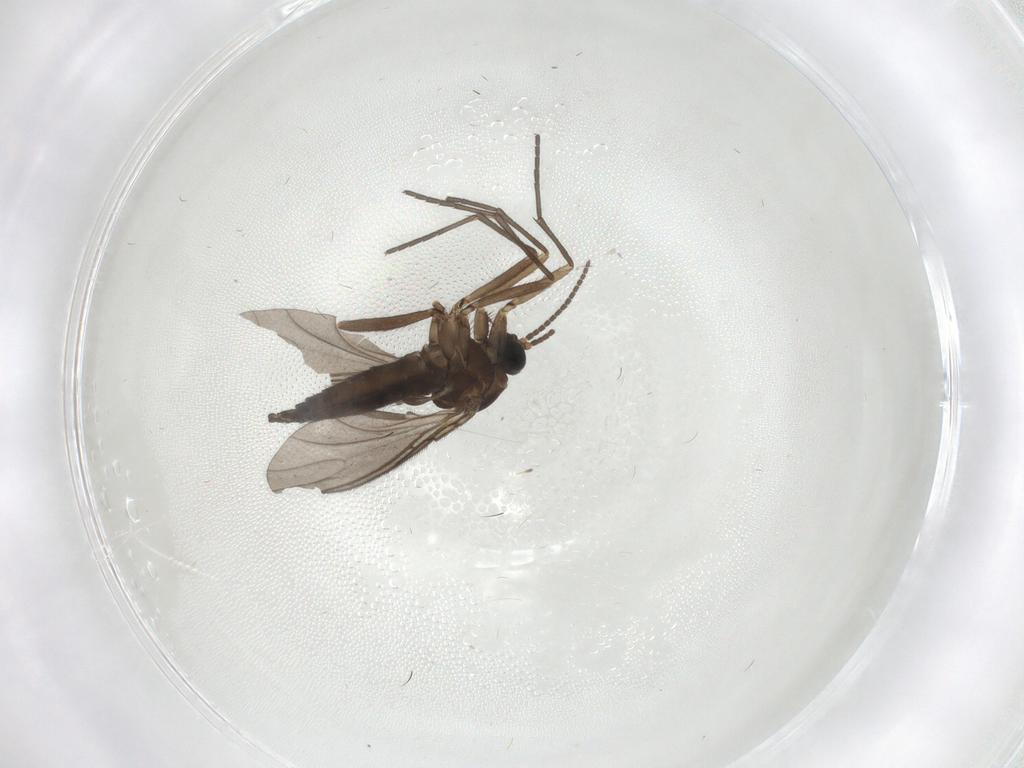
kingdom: Animalia
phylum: Arthropoda
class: Insecta
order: Diptera
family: Sciaridae
